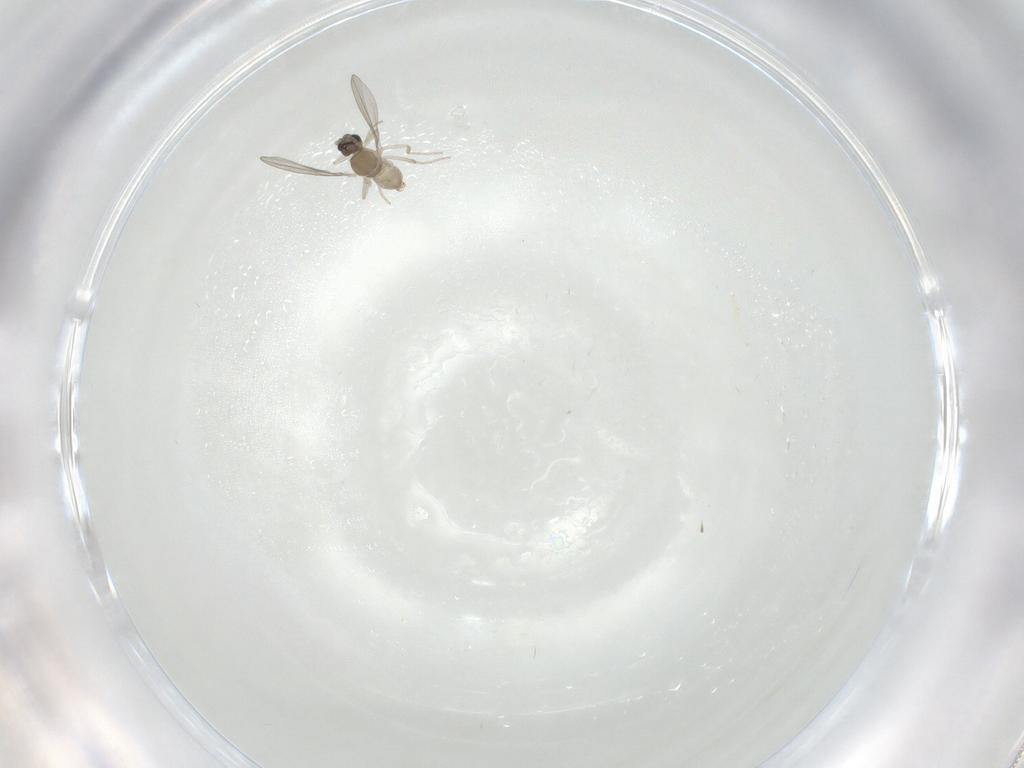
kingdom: Animalia
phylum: Arthropoda
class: Insecta
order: Diptera
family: Cecidomyiidae
